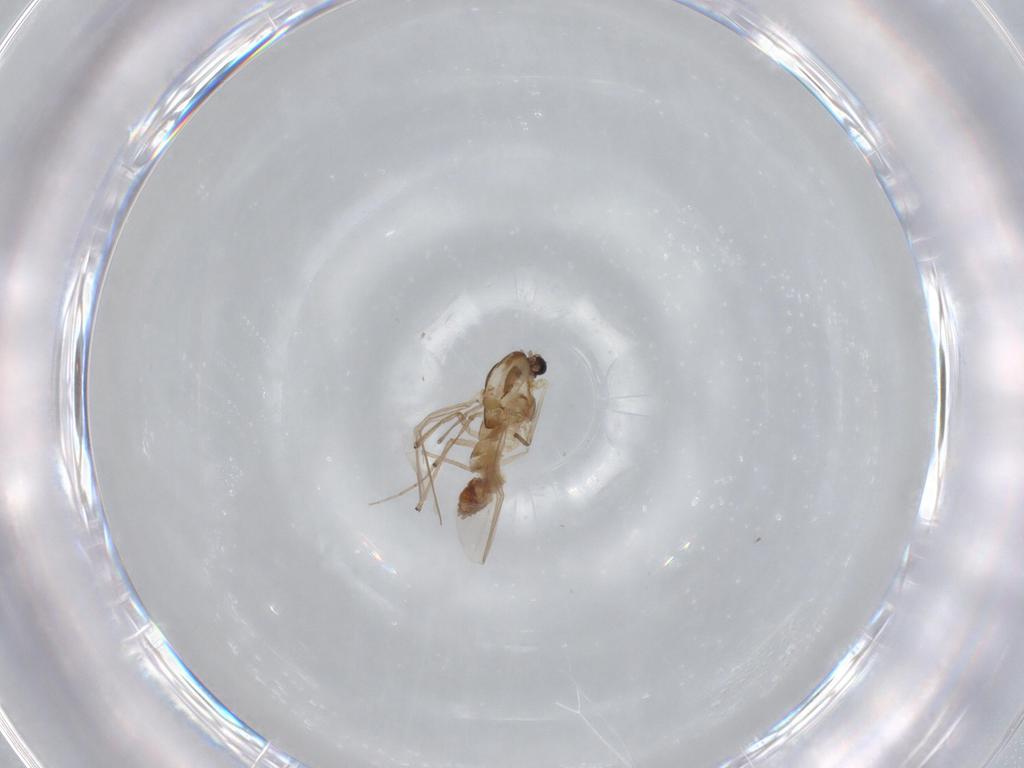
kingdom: Animalia
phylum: Arthropoda
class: Insecta
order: Diptera
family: Chironomidae
